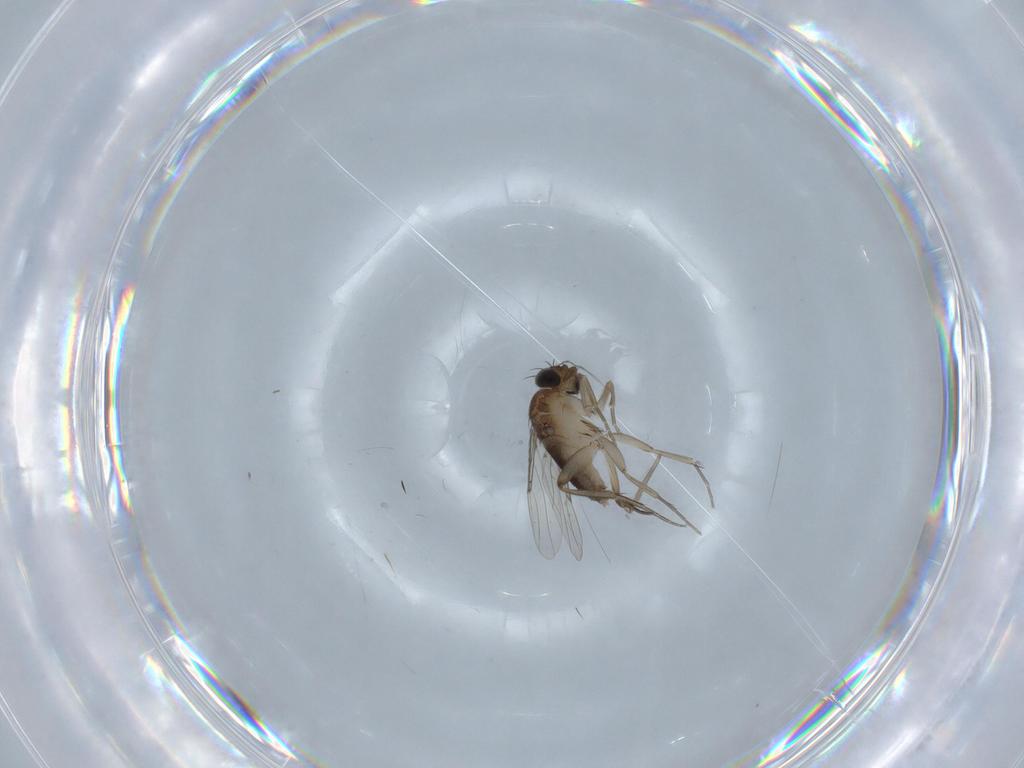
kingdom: Animalia
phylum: Arthropoda
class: Insecta
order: Diptera
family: Phoridae
